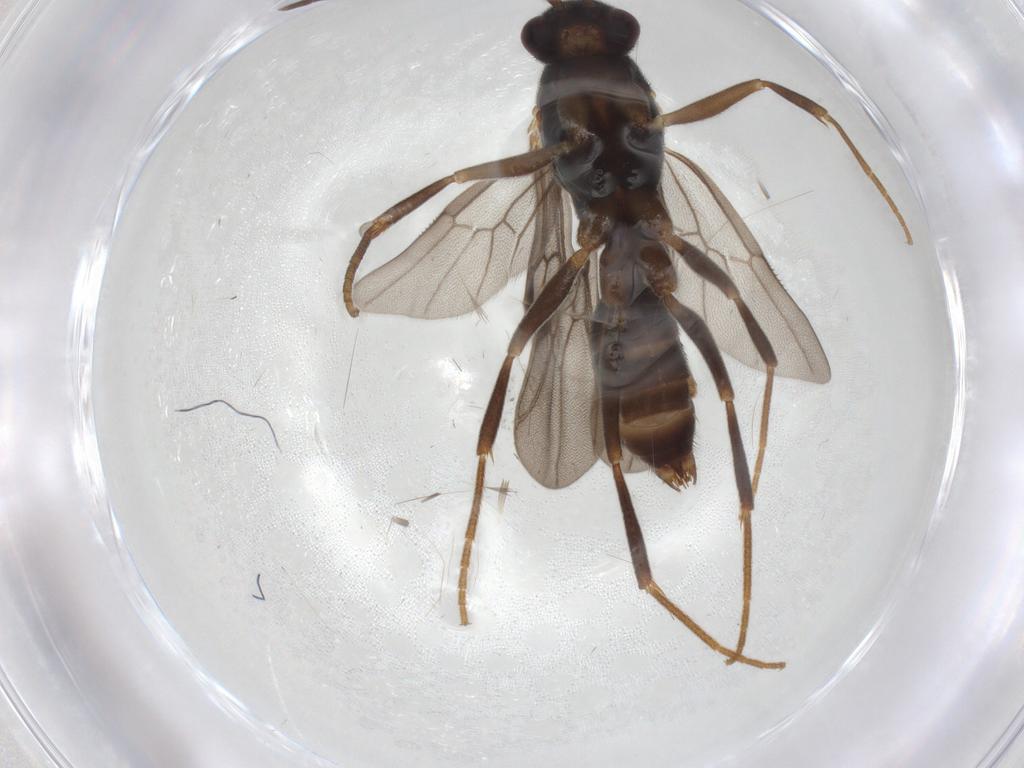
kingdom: Animalia
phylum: Arthropoda
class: Insecta
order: Hymenoptera
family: Formicidae
